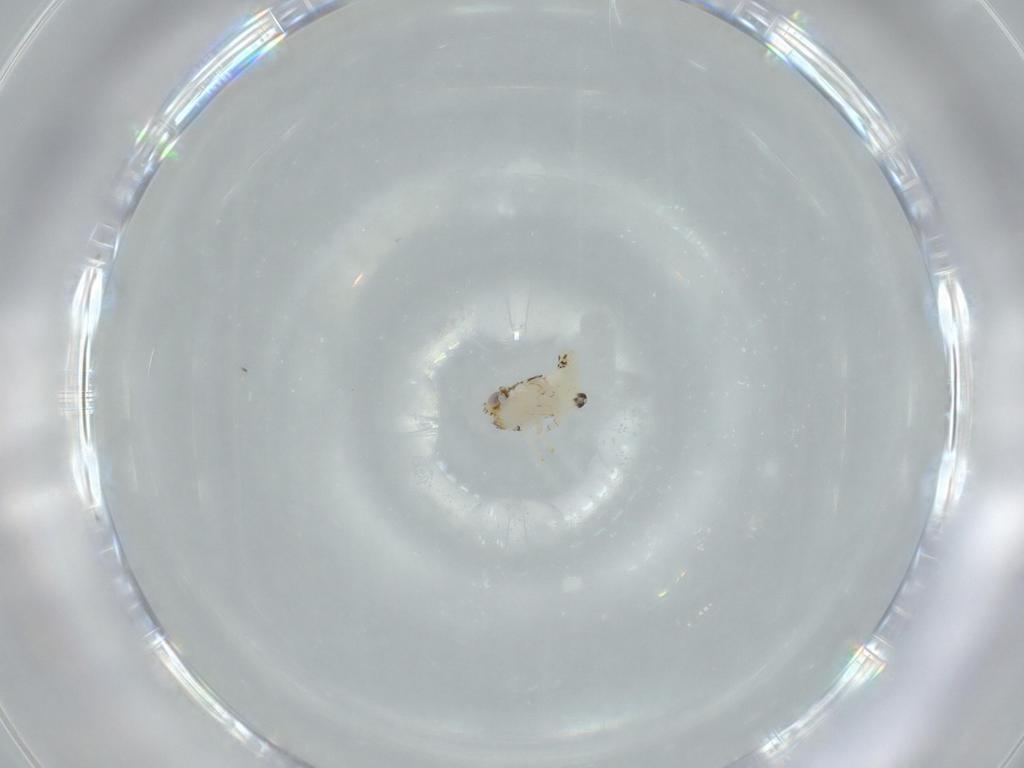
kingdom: Animalia
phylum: Arthropoda
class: Insecta
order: Hemiptera
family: Nogodinidae
